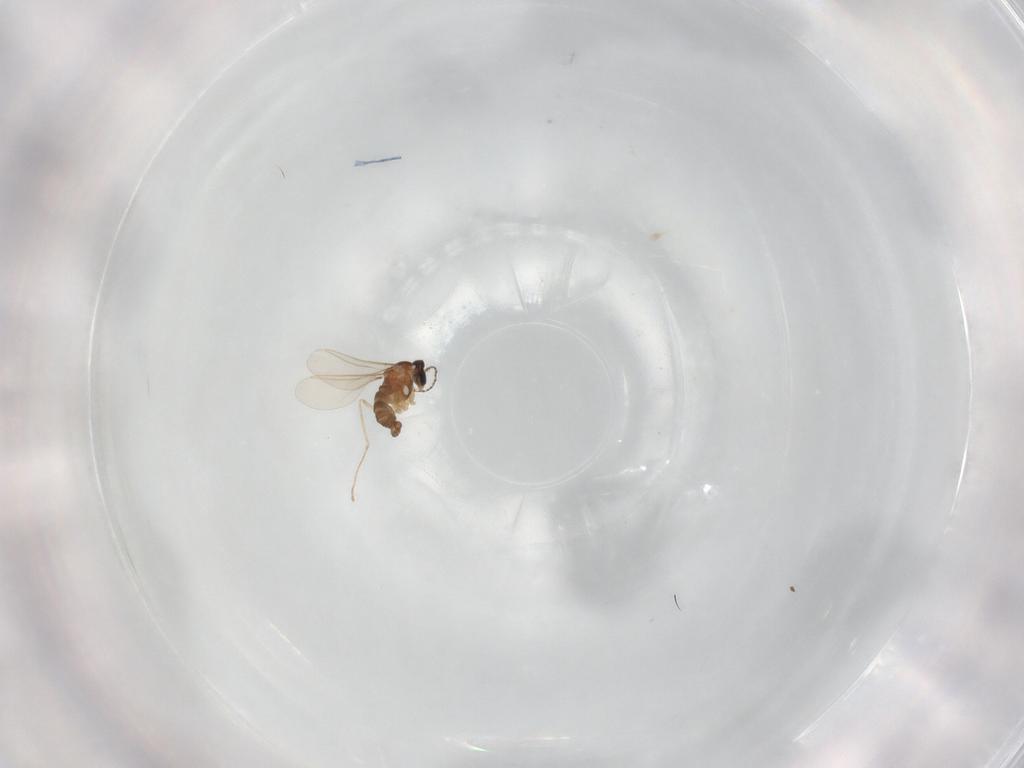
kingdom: Animalia
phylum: Arthropoda
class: Insecta
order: Diptera
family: Cecidomyiidae
